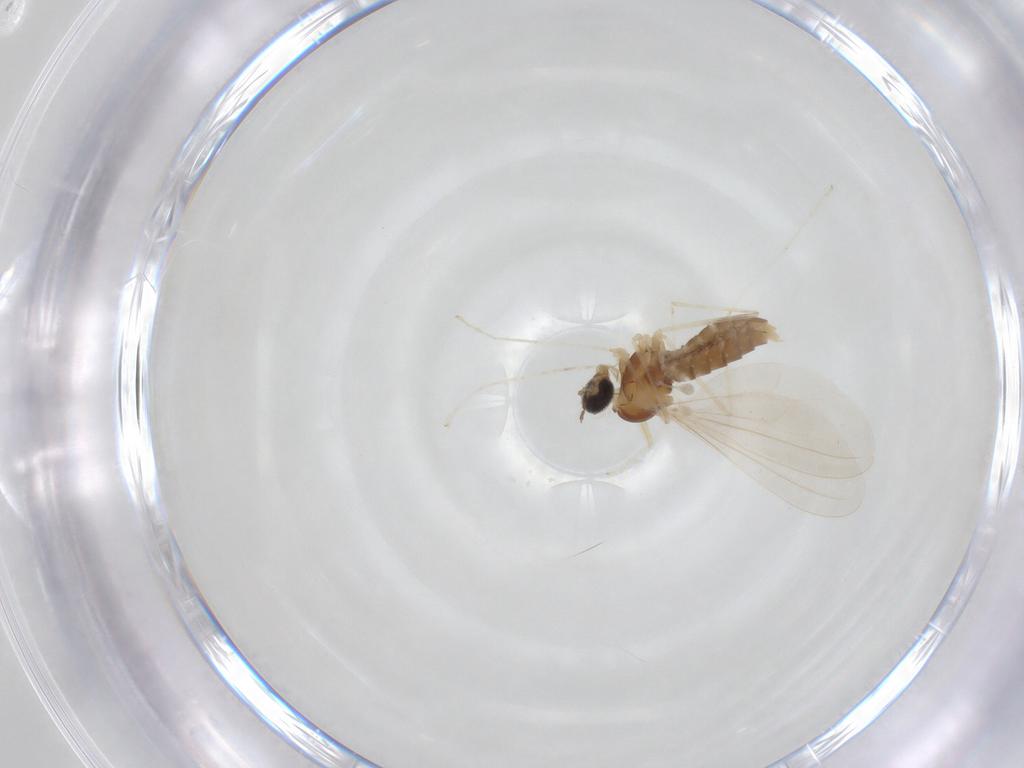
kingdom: Animalia
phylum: Arthropoda
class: Insecta
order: Diptera
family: Cecidomyiidae
